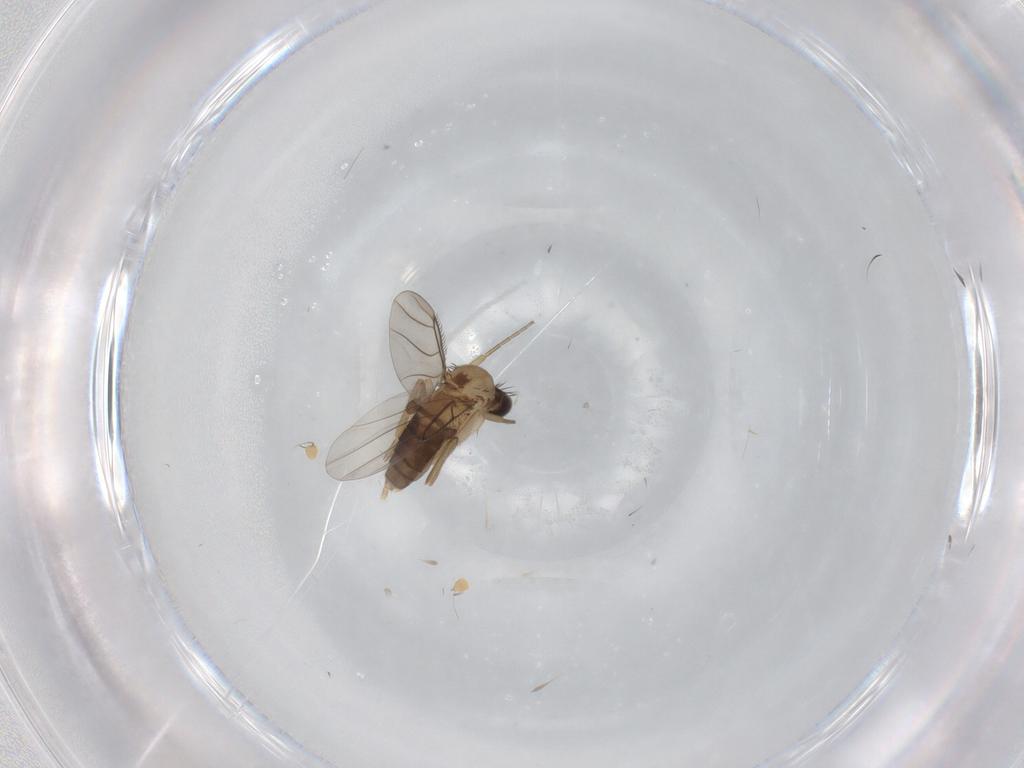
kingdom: Animalia
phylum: Arthropoda
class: Insecta
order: Diptera
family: Phoridae
